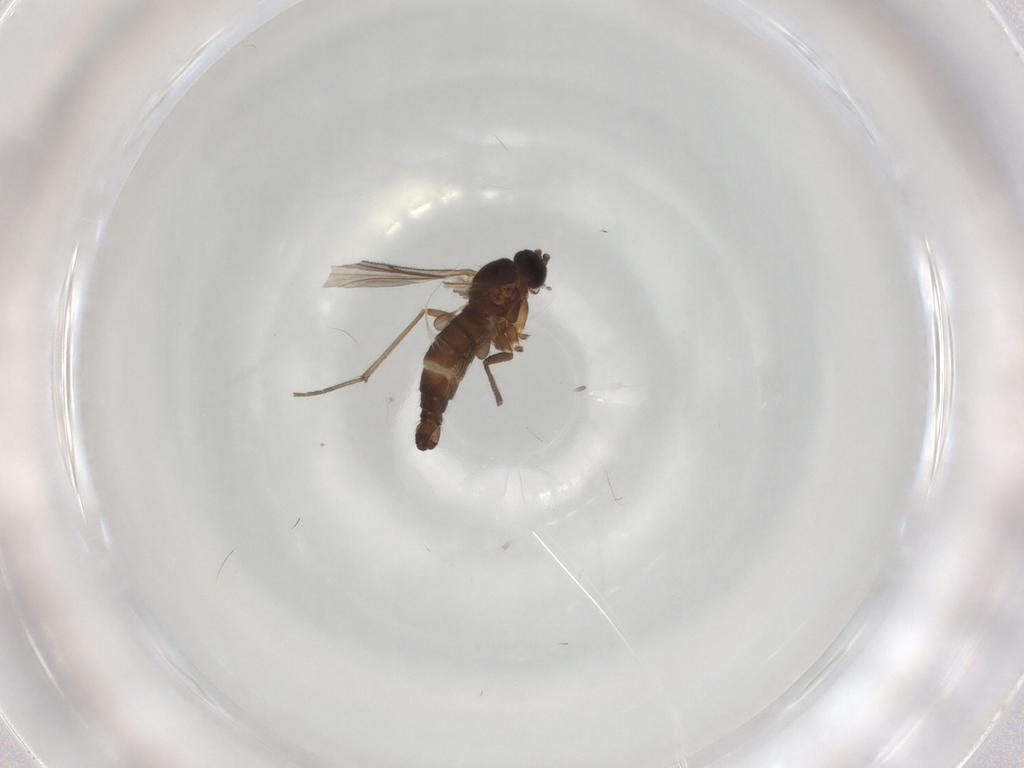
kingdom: Animalia
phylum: Arthropoda
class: Insecta
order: Diptera
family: Sciaridae
